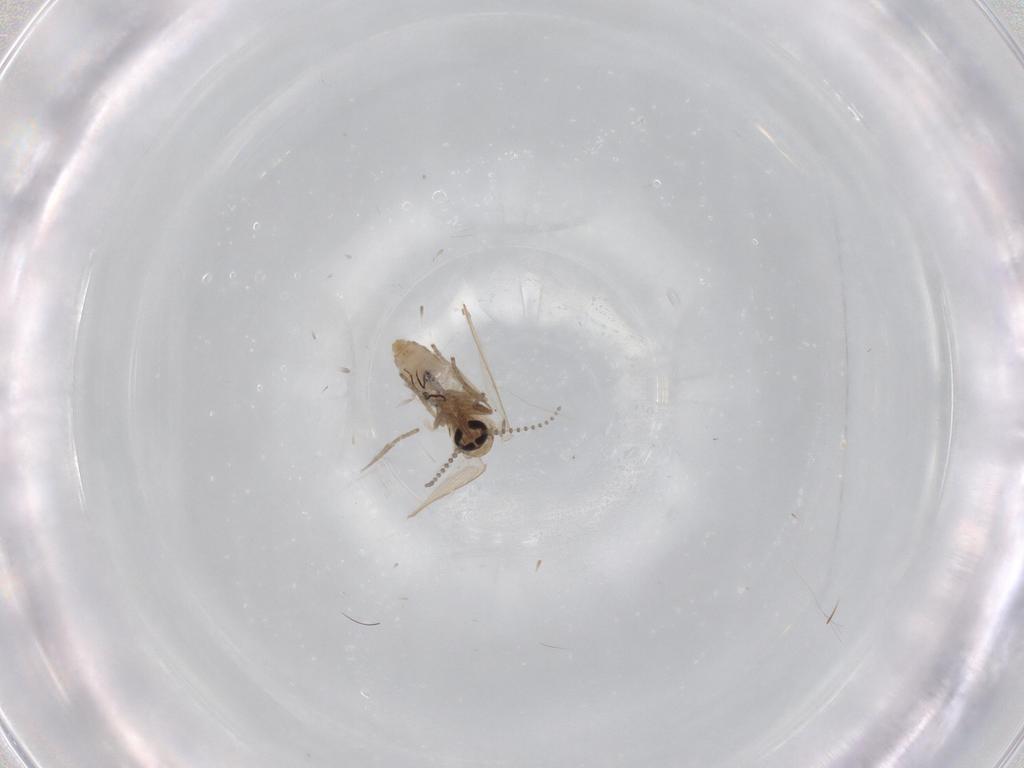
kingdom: Animalia
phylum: Arthropoda
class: Insecta
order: Diptera
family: Psychodidae
